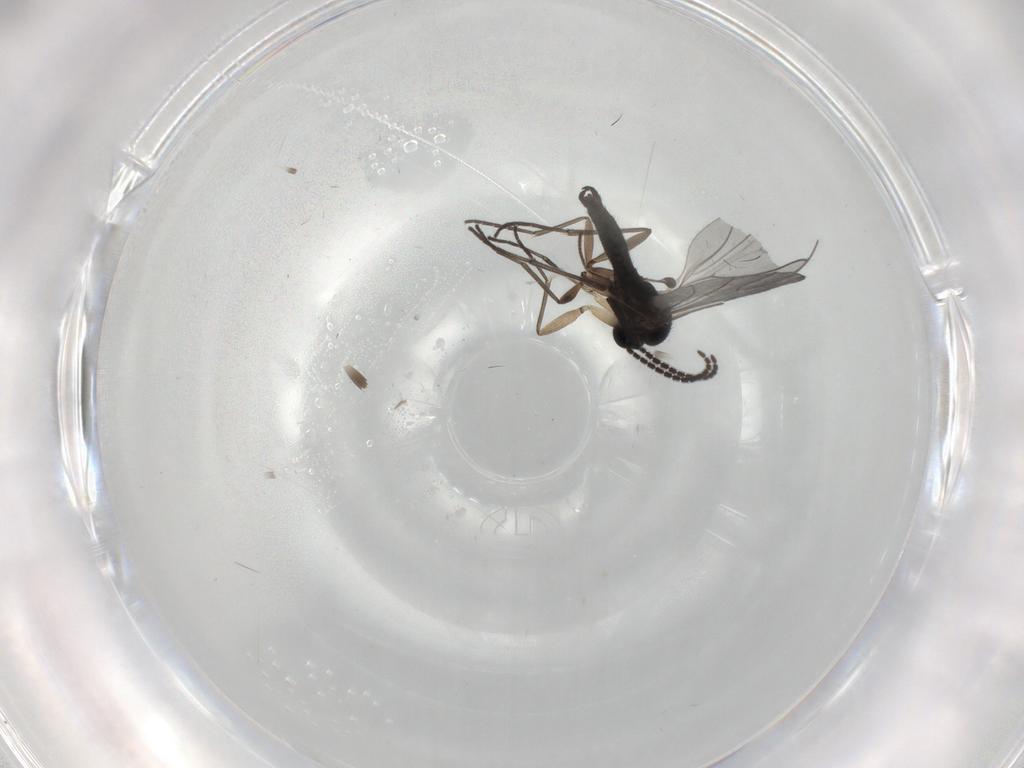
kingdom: Animalia
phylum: Arthropoda
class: Insecta
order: Diptera
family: Sciaridae
